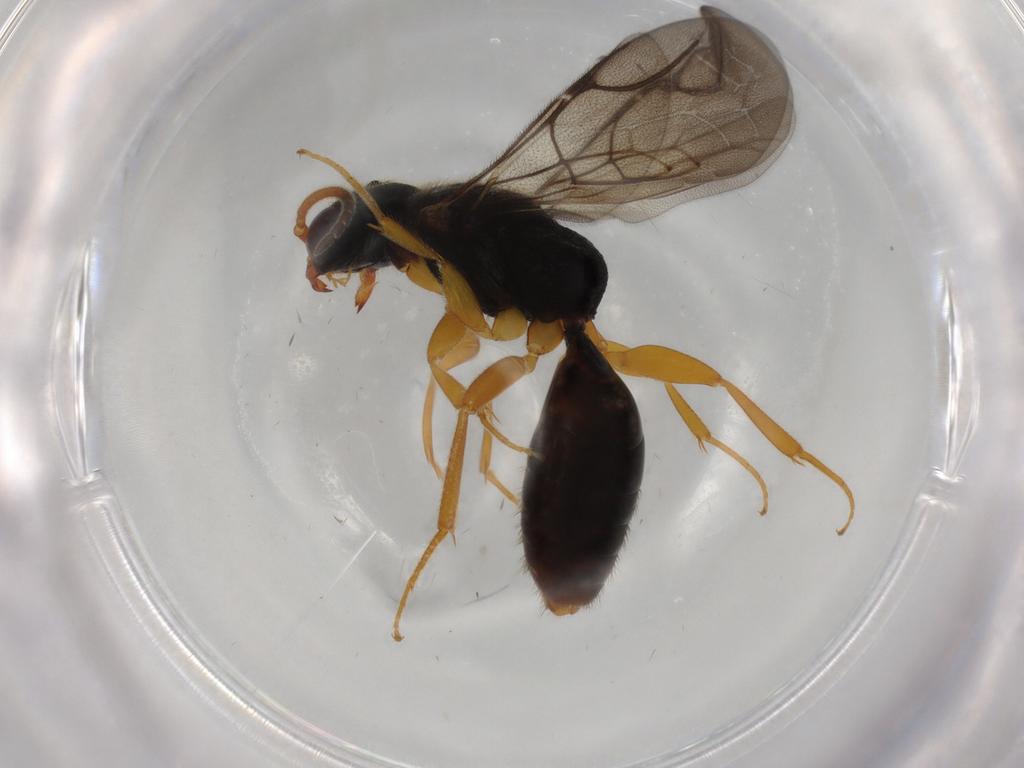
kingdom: Animalia
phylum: Arthropoda
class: Insecta
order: Hymenoptera
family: Bethylidae
